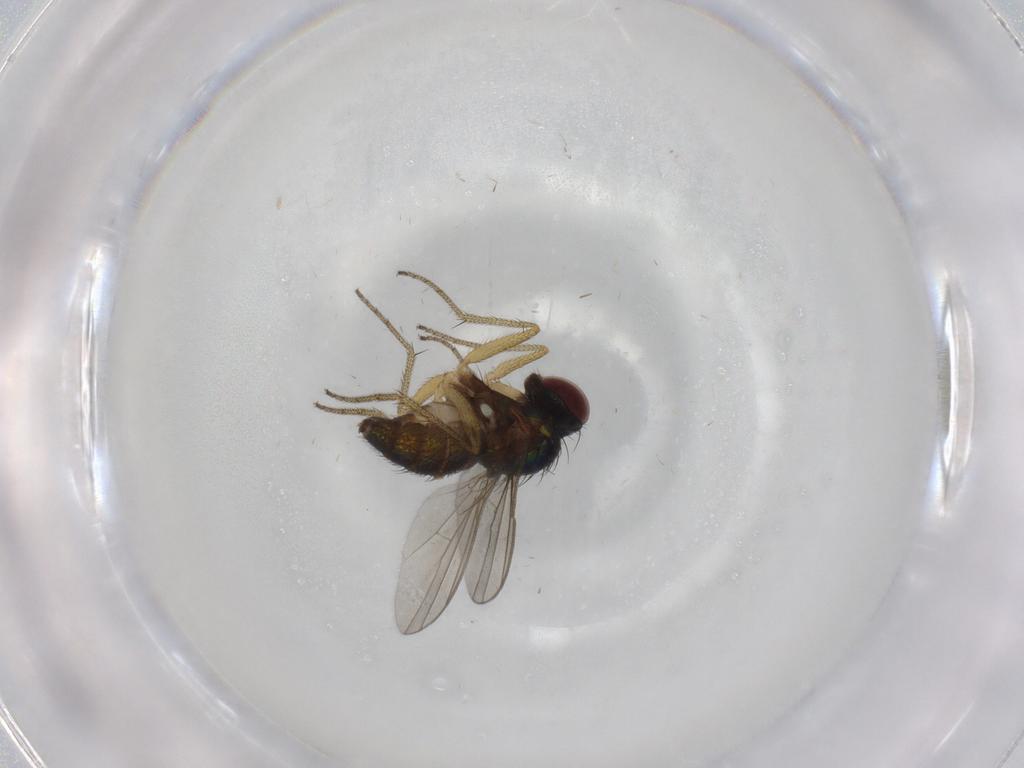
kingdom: Animalia
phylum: Arthropoda
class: Insecta
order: Diptera
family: Dolichopodidae
